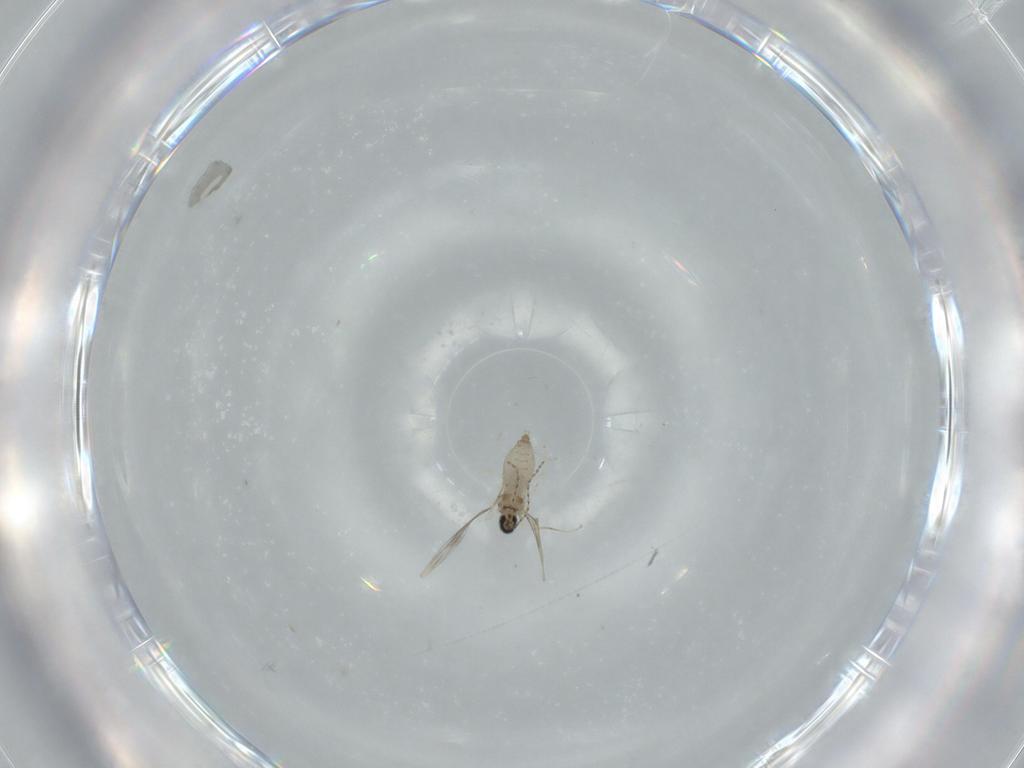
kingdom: Animalia
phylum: Arthropoda
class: Insecta
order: Diptera
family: Cecidomyiidae
